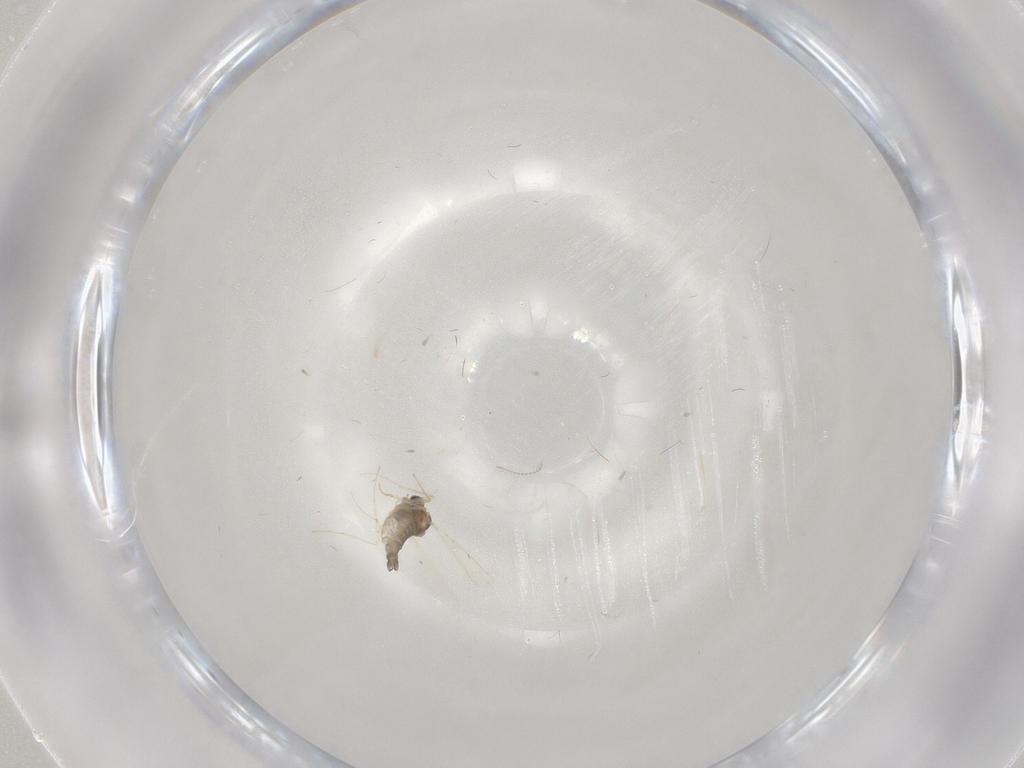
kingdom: Animalia
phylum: Arthropoda
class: Insecta
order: Diptera
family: Chironomidae
